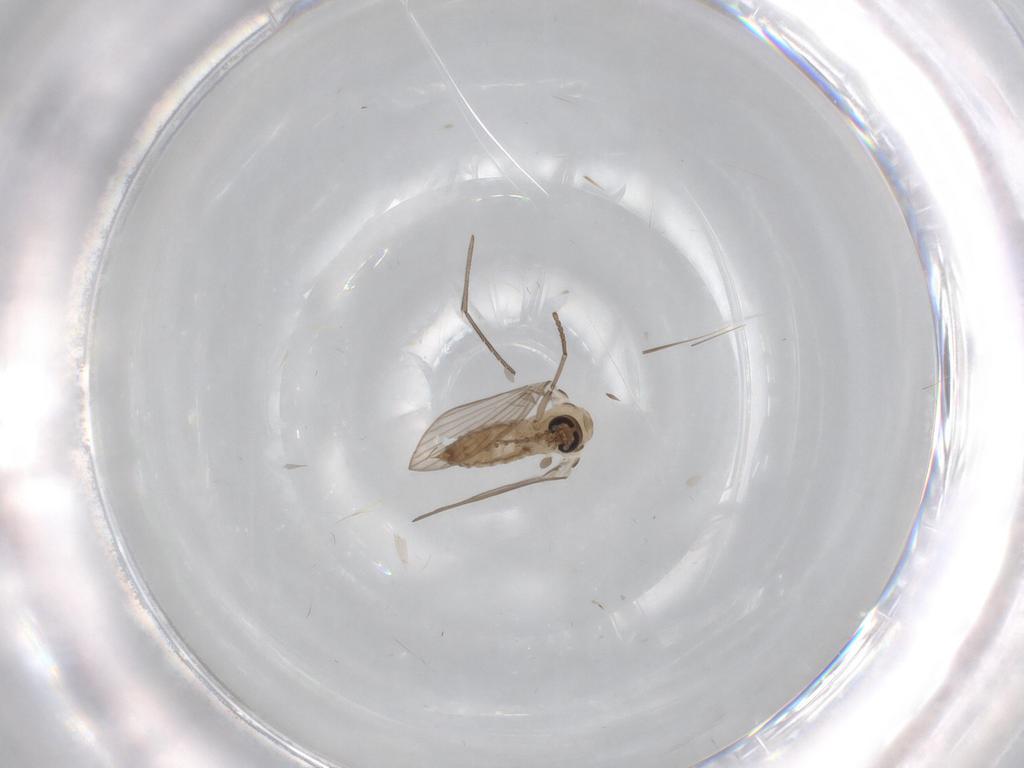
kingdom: Animalia
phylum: Arthropoda
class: Insecta
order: Diptera
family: Psychodidae
